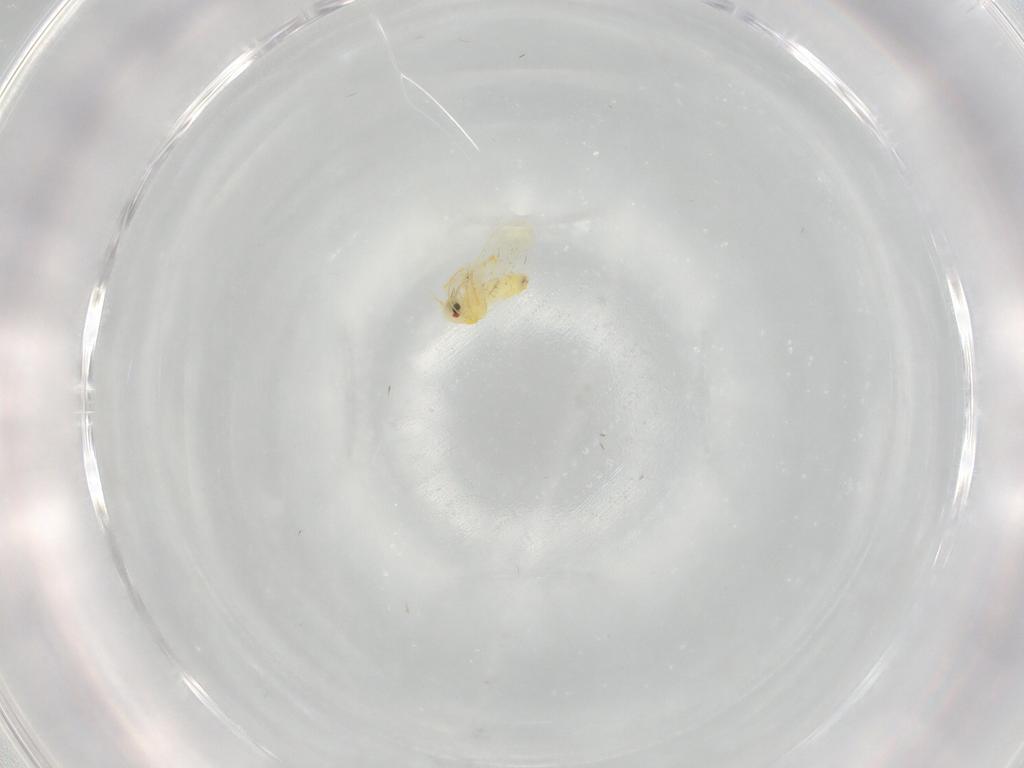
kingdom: Animalia
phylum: Arthropoda
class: Insecta
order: Hemiptera
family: Aleyrodidae
